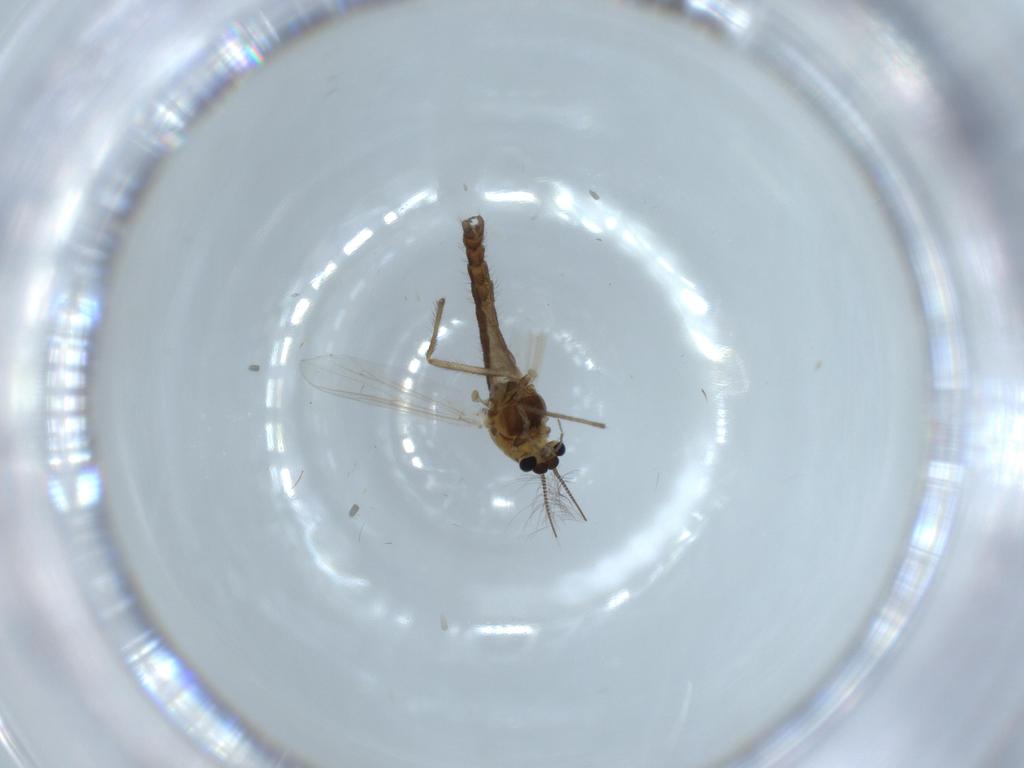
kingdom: Animalia
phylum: Arthropoda
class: Insecta
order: Diptera
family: Chironomidae
